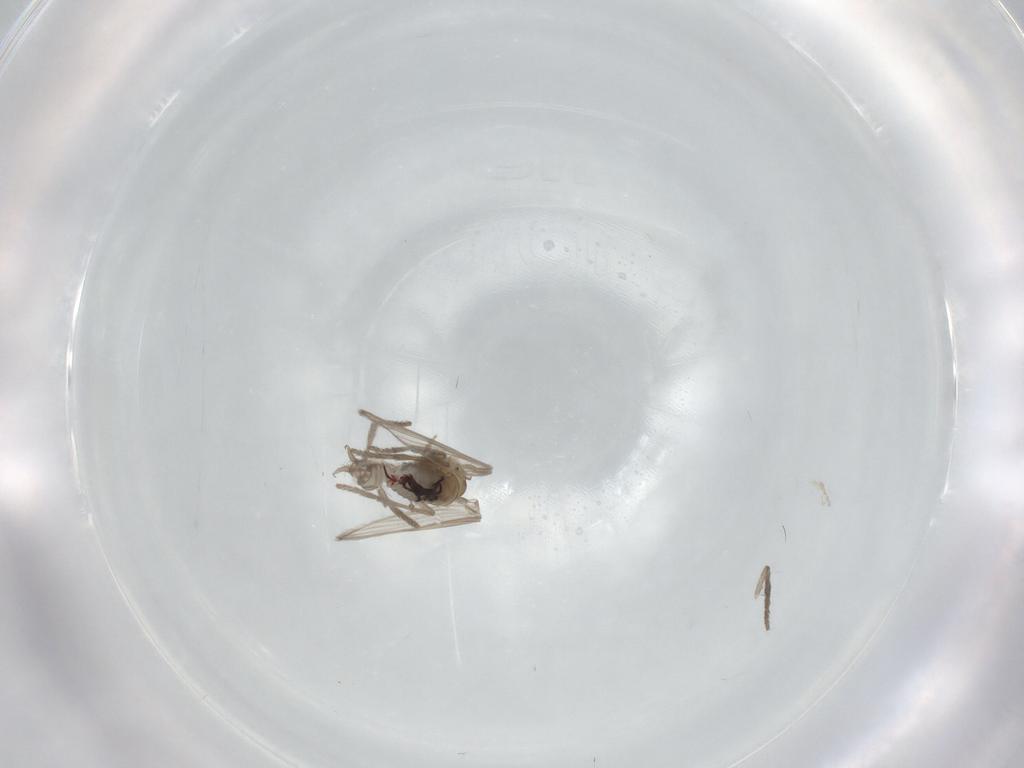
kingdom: Animalia
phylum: Arthropoda
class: Insecta
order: Diptera
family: Psychodidae
